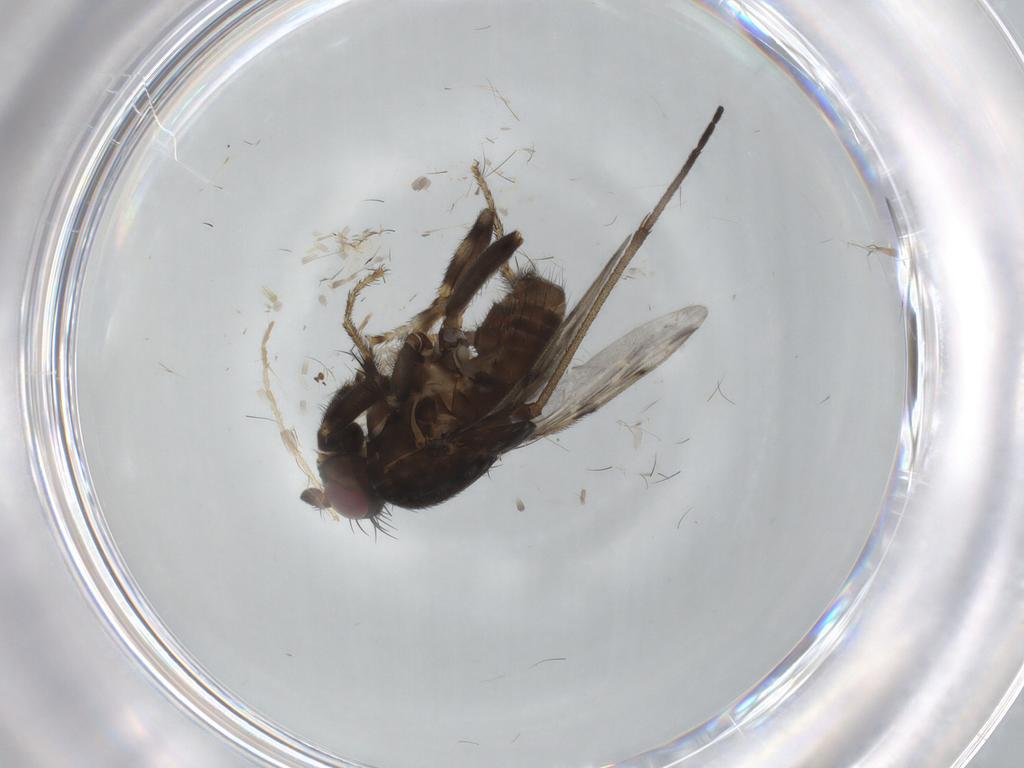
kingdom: Animalia
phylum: Arthropoda
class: Insecta
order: Diptera
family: Sphaeroceridae
